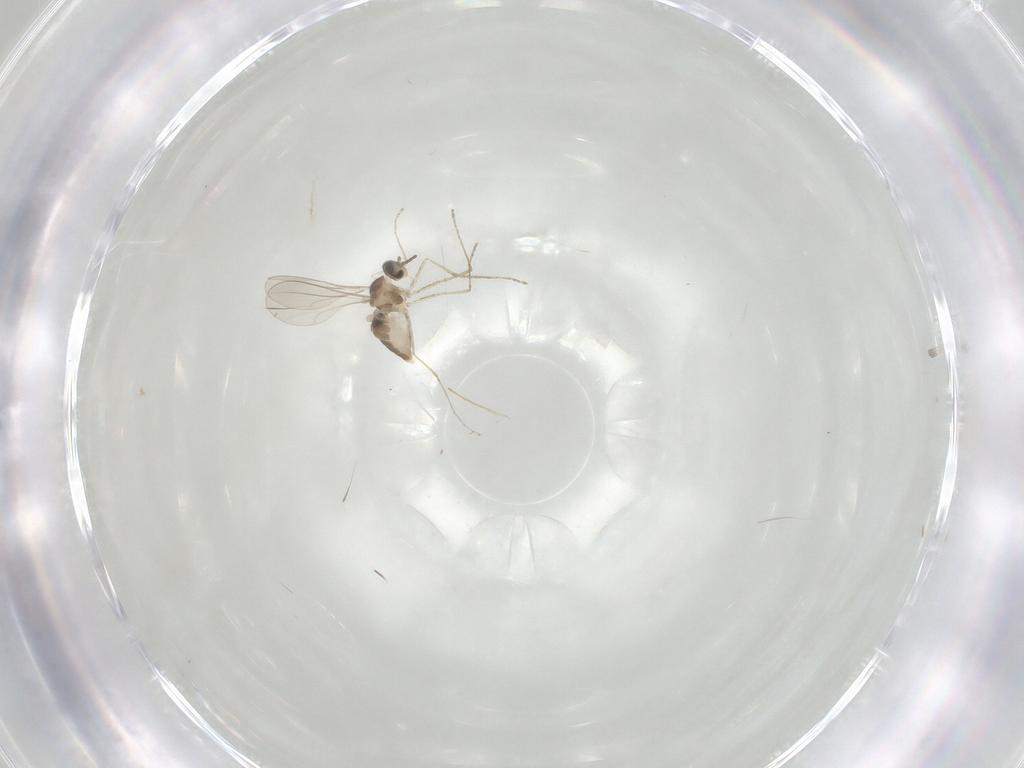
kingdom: Animalia
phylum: Arthropoda
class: Insecta
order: Diptera
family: Cecidomyiidae
